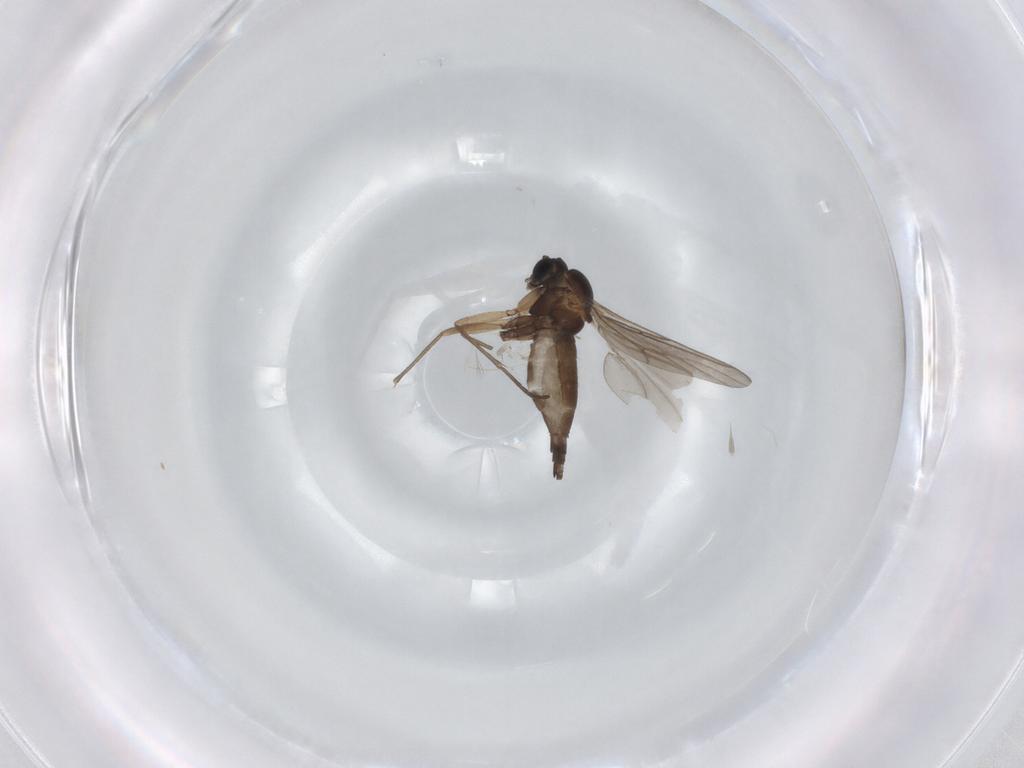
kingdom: Animalia
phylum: Arthropoda
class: Insecta
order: Diptera
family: Sciaridae
